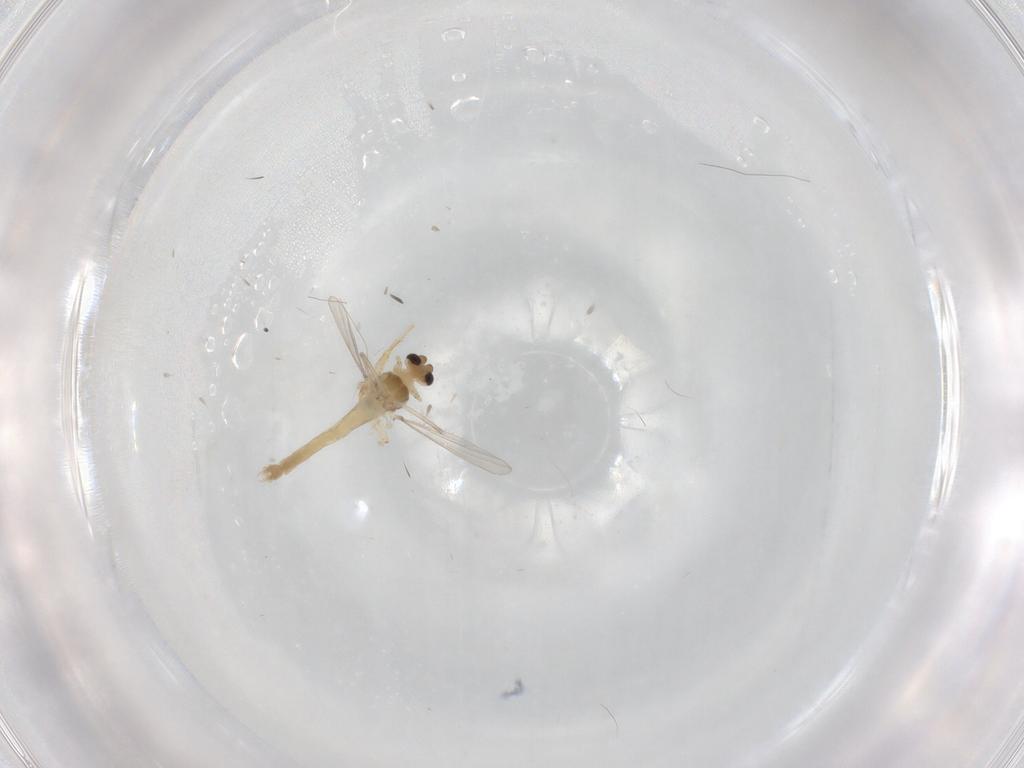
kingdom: Animalia
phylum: Arthropoda
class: Insecta
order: Diptera
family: Chironomidae
